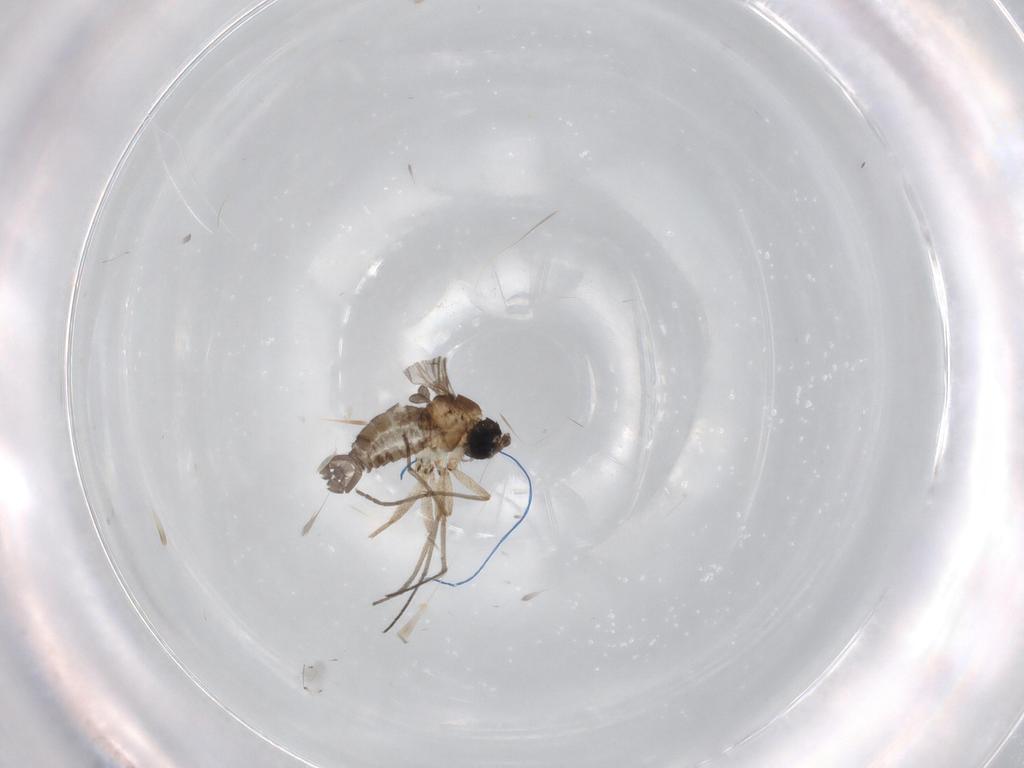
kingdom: Animalia
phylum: Arthropoda
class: Insecta
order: Diptera
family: Sciaridae
